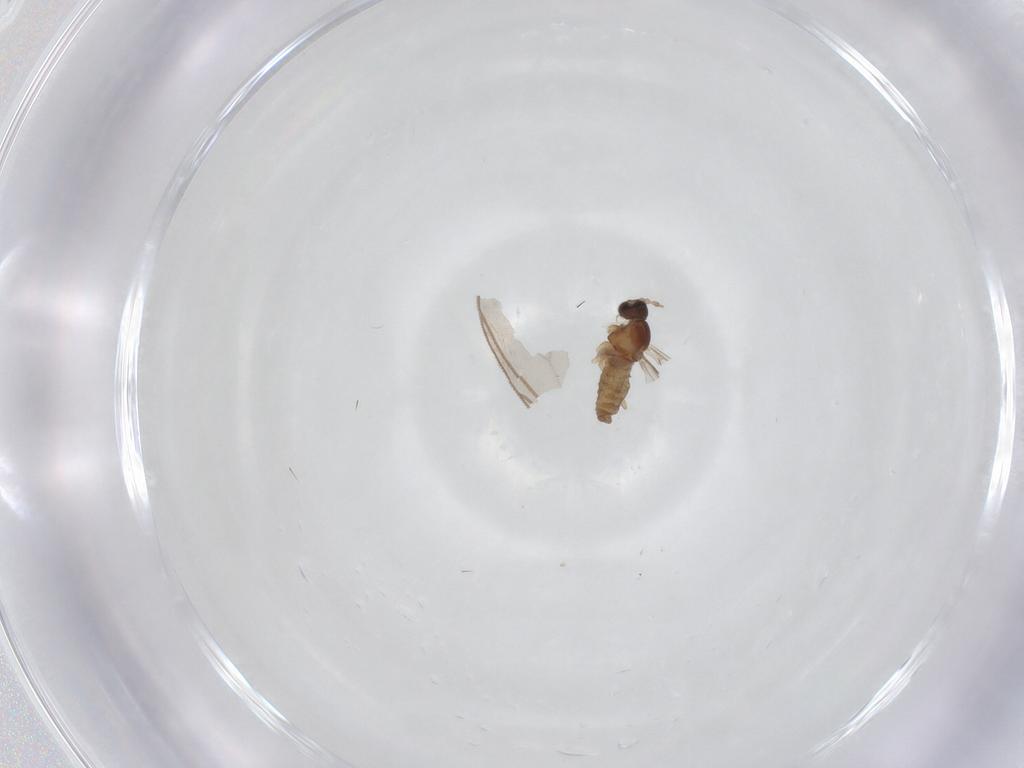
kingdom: Animalia
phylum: Arthropoda
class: Insecta
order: Diptera
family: Cecidomyiidae
